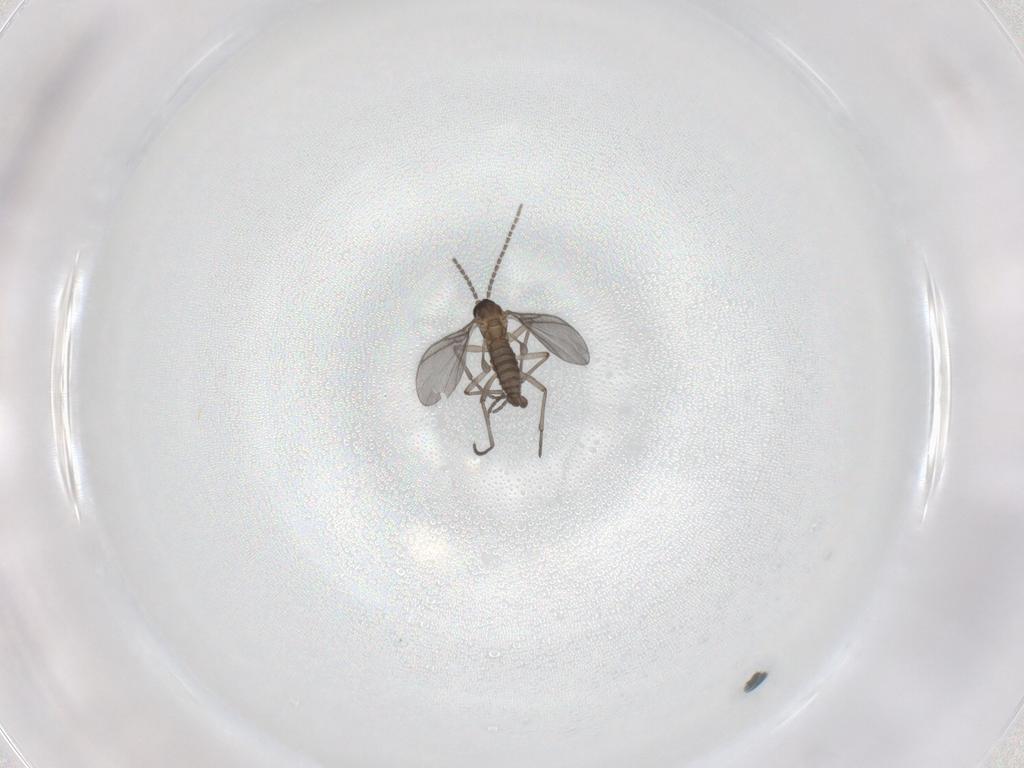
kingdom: Animalia
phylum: Arthropoda
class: Insecta
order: Diptera
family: Sciaridae
